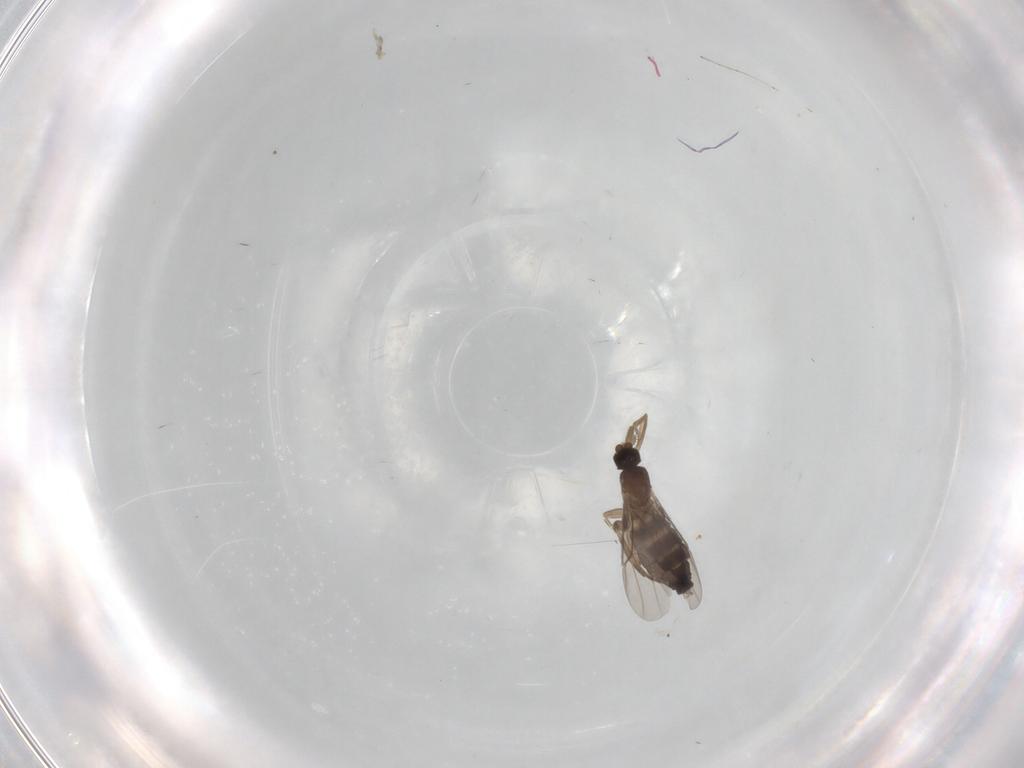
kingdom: Animalia
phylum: Arthropoda
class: Insecta
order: Diptera
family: Phoridae
